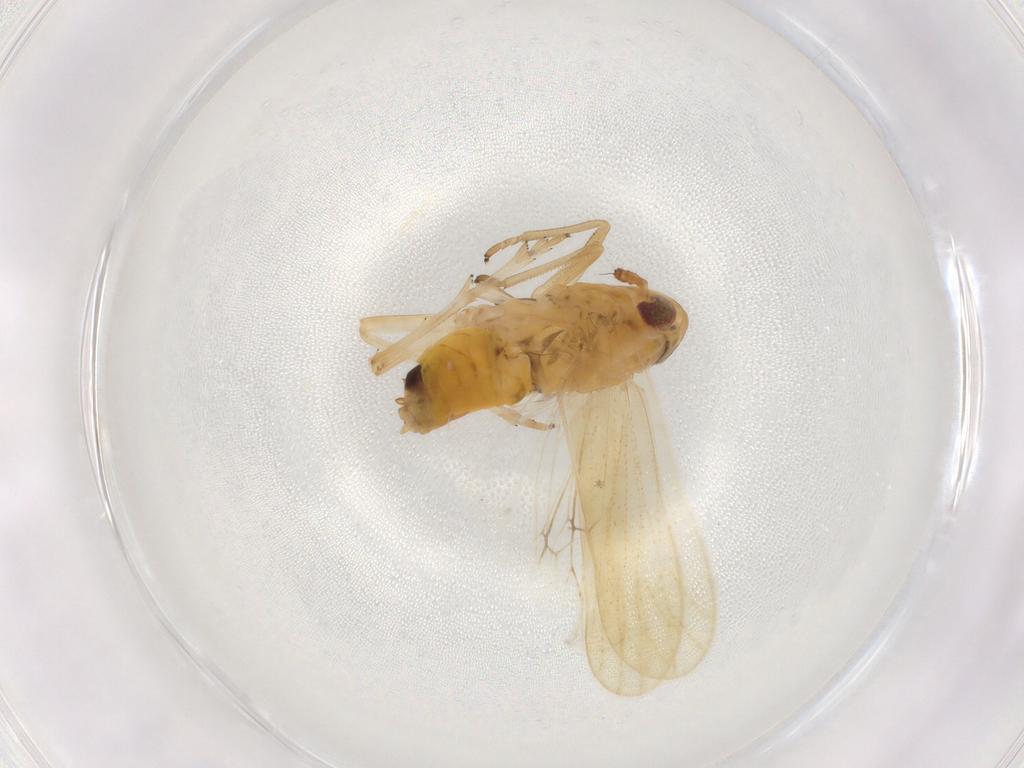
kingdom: Animalia
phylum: Arthropoda
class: Insecta
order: Hemiptera
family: Delphacidae
